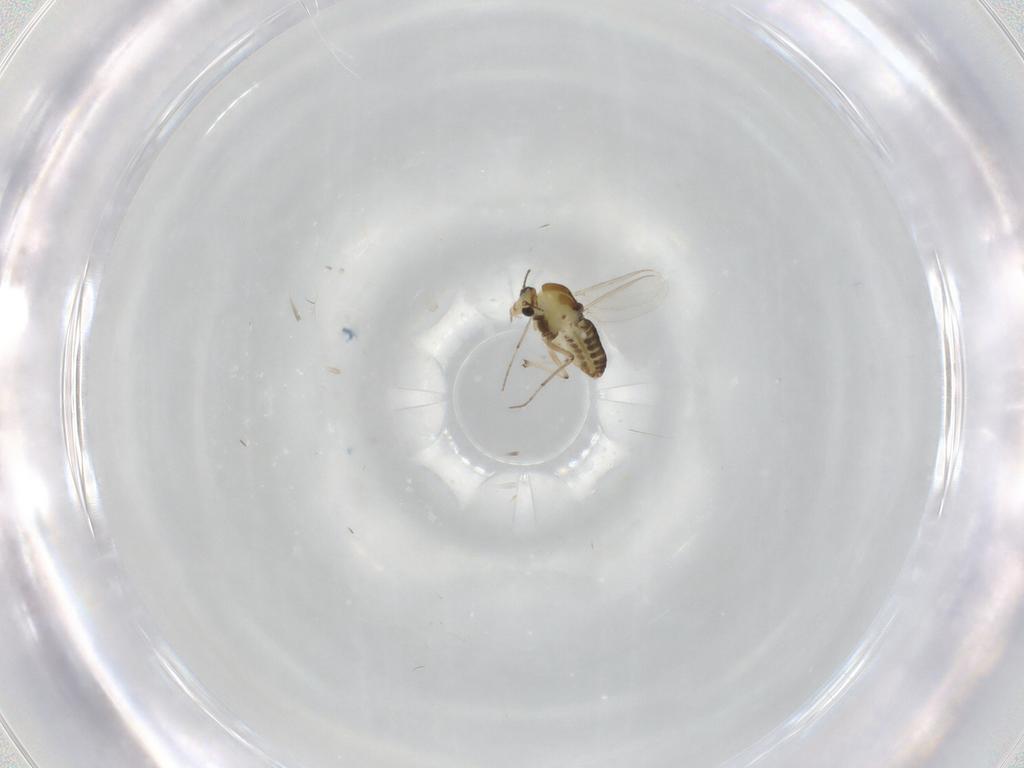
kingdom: Animalia
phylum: Arthropoda
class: Insecta
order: Diptera
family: Chironomidae
